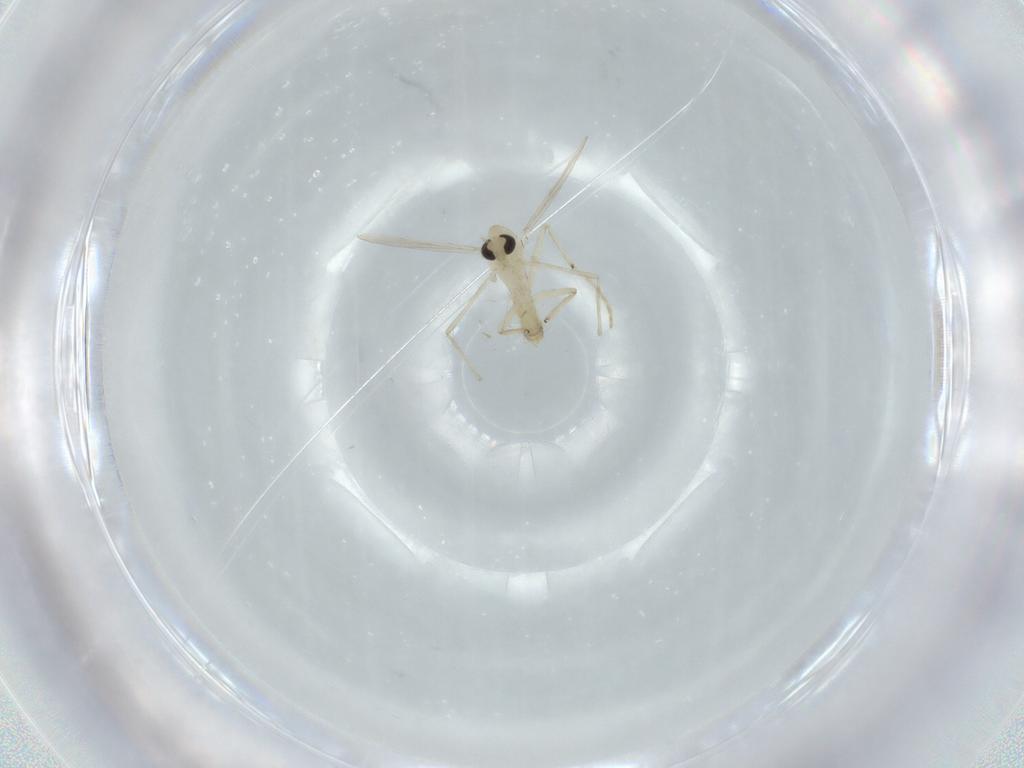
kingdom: Animalia
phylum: Arthropoda
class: Insecta
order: Diptera
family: Chironomidae
